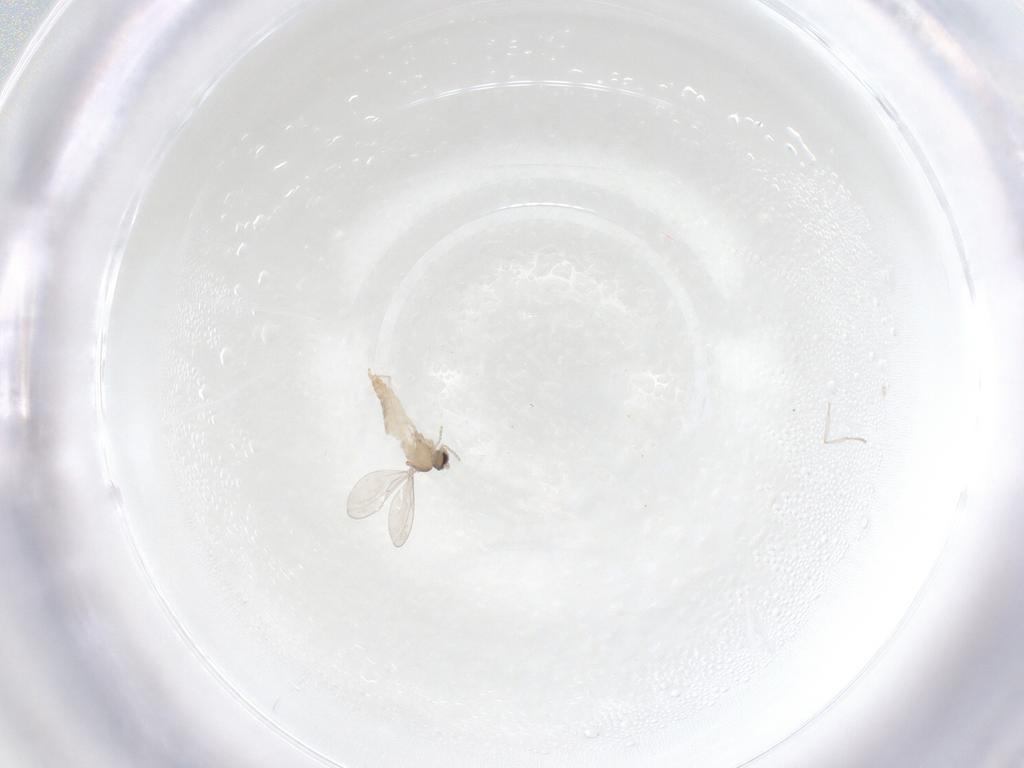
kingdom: Animalia
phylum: Arthropoda
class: Insecta
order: Diptera
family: Cecidomyiidae
